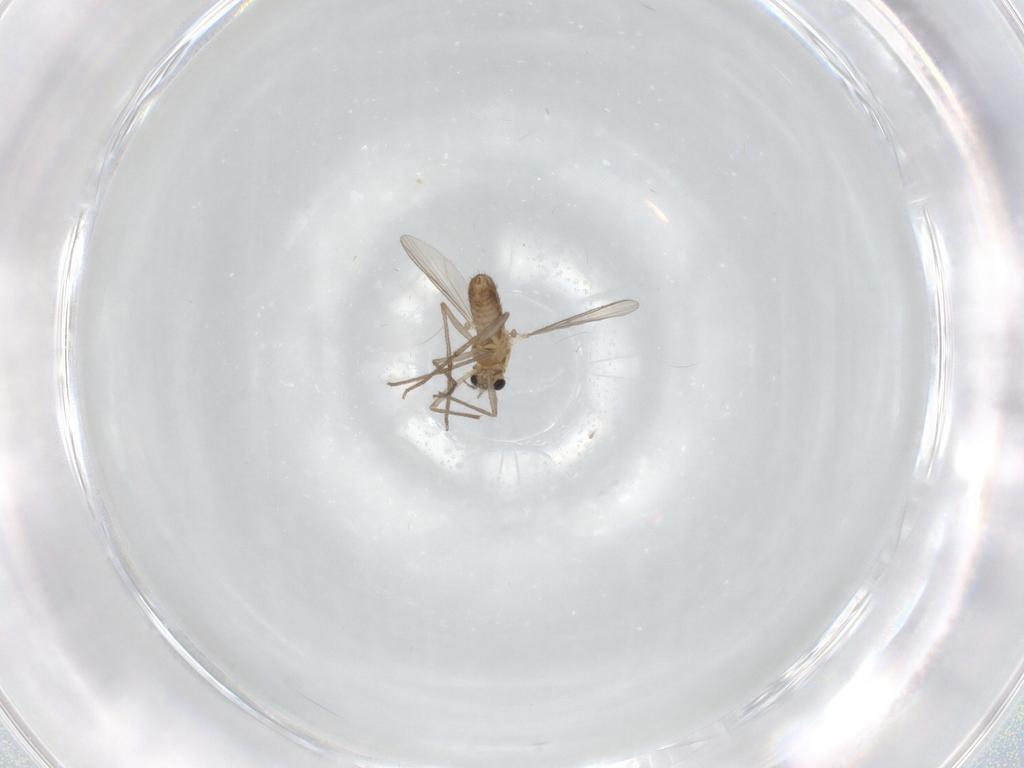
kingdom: Animalia
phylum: Arthropoda
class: Insecta
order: Diptera
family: Chironomidae
